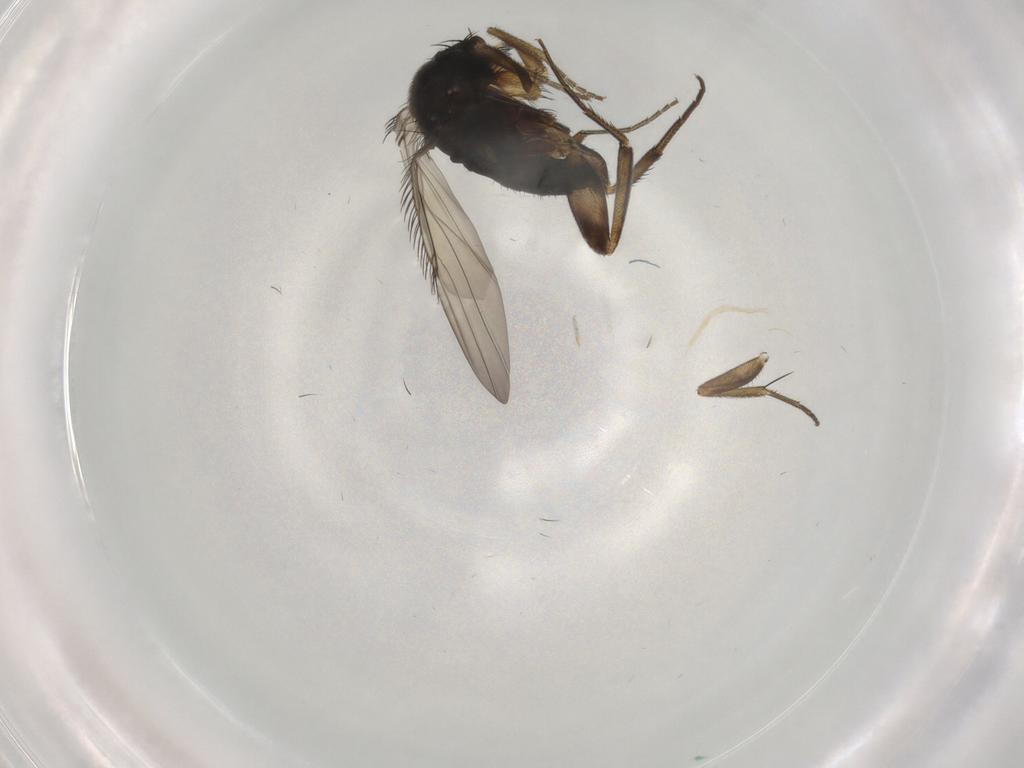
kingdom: Animalia
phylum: Arthropoda
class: Insecta
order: Diptera
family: Phoridae
